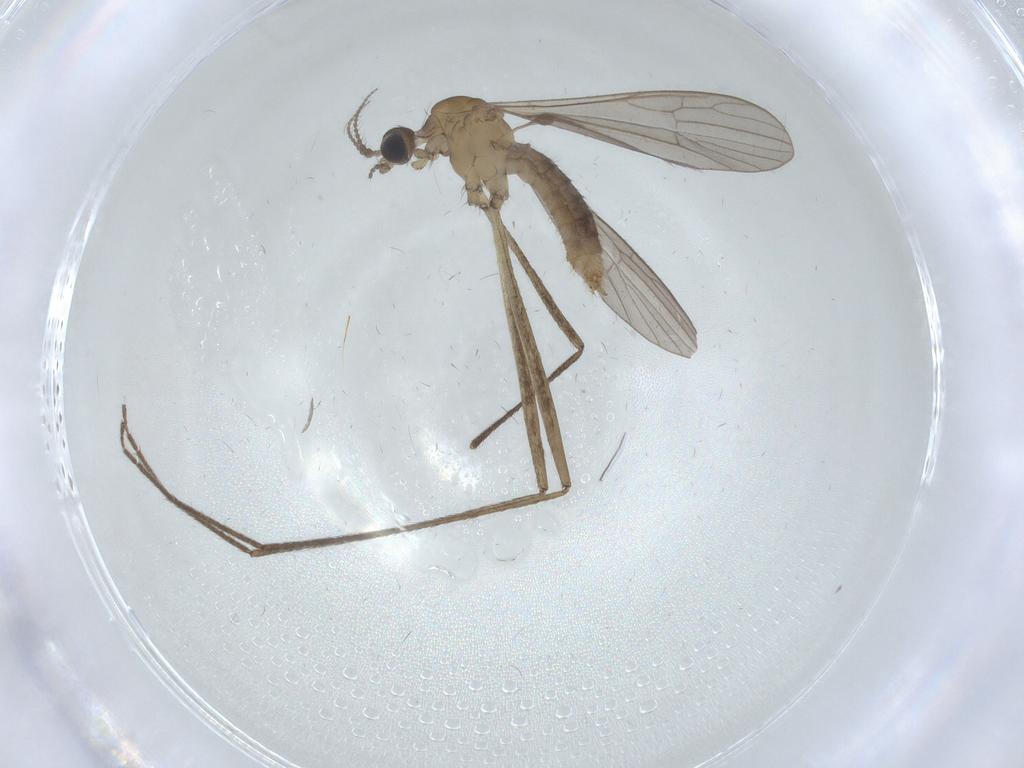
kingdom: Animalia
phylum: Arthropoda
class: Insecta
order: Diptera
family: Limoniidae
